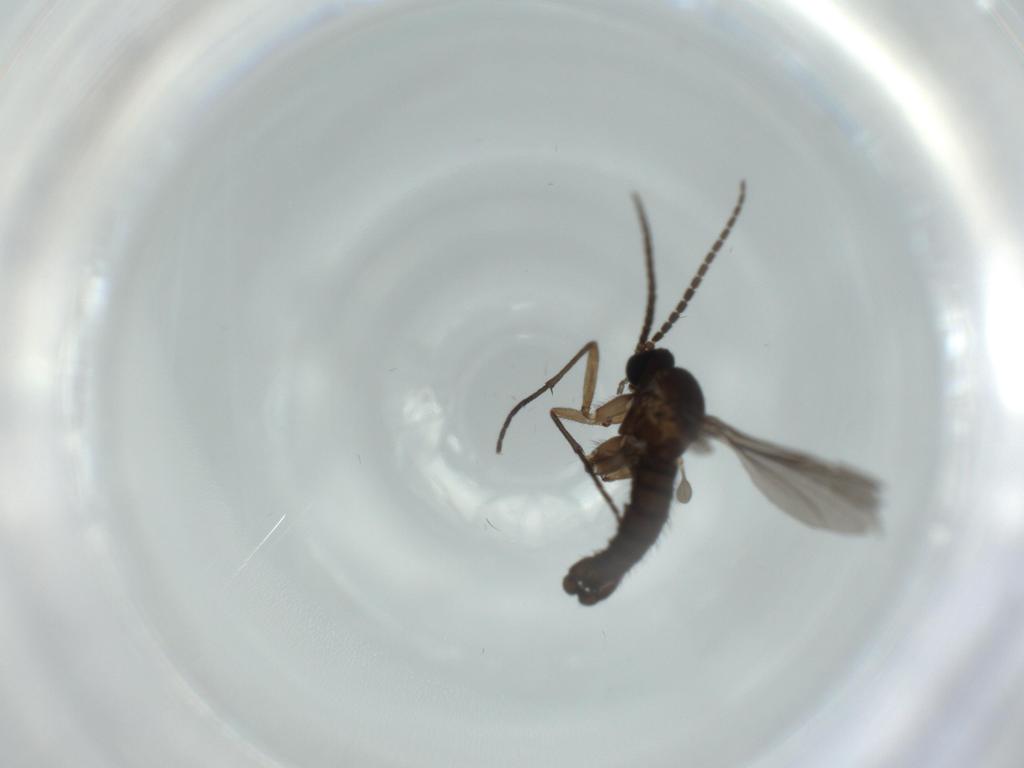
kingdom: Animalia
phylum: Arthropoda
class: Insecta
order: Diptera
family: Sciaridae
